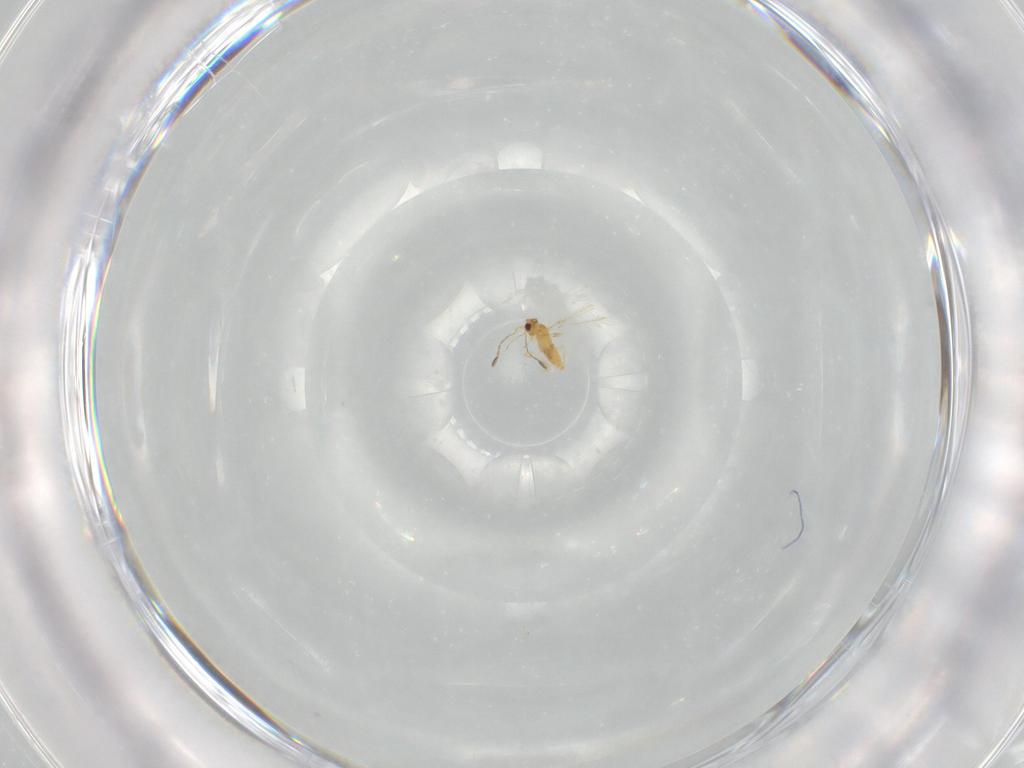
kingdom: Animalia
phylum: Arthropoda
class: Insecta
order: Hymenoptera
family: Mymaridae
